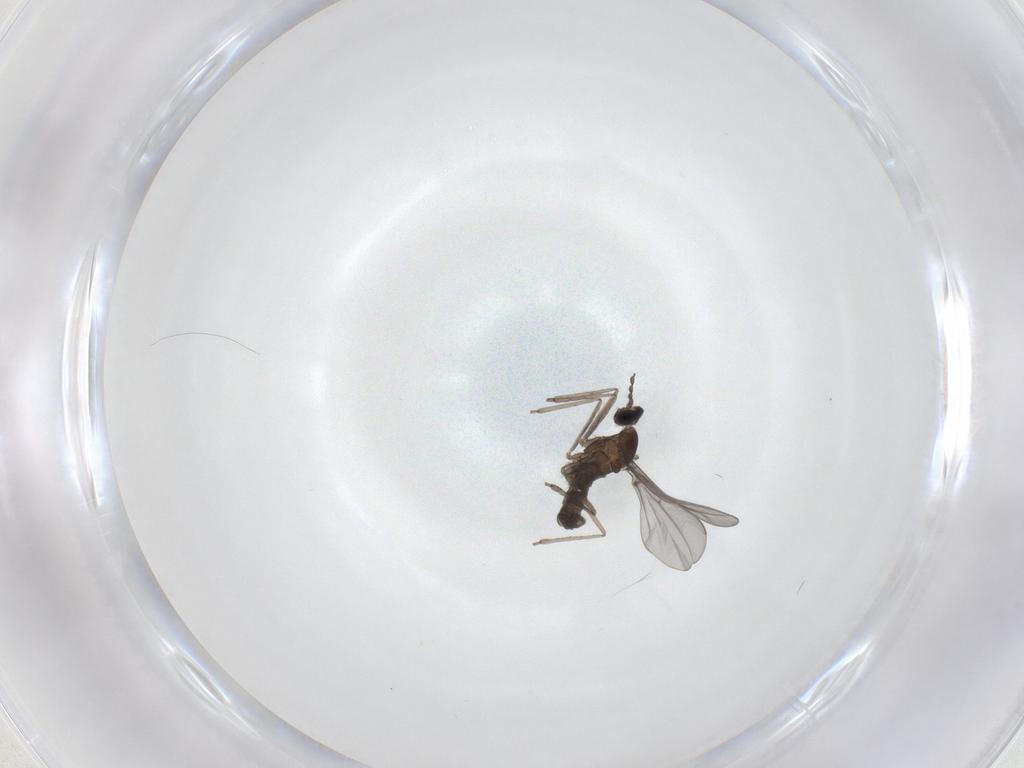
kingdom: Animalia
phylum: Arthropoda
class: Insecta
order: Diptera
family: Cecidomyiidae
